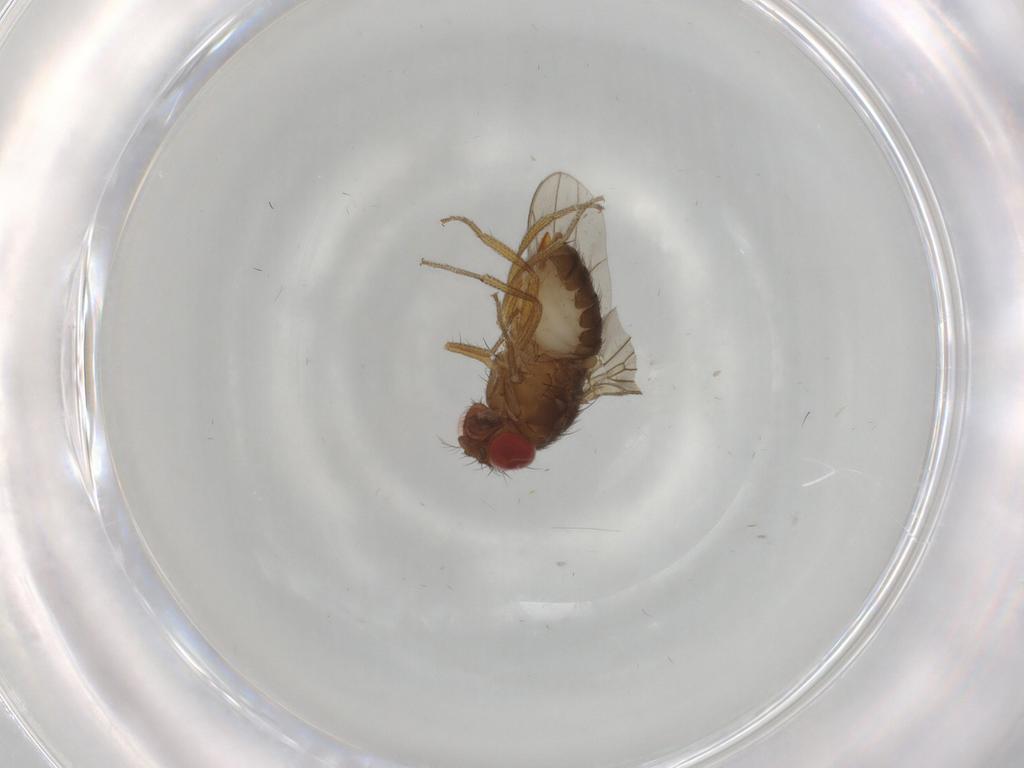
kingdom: Animalia
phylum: Arthropoda
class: Insecta
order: Diptera
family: Drosophilidae
